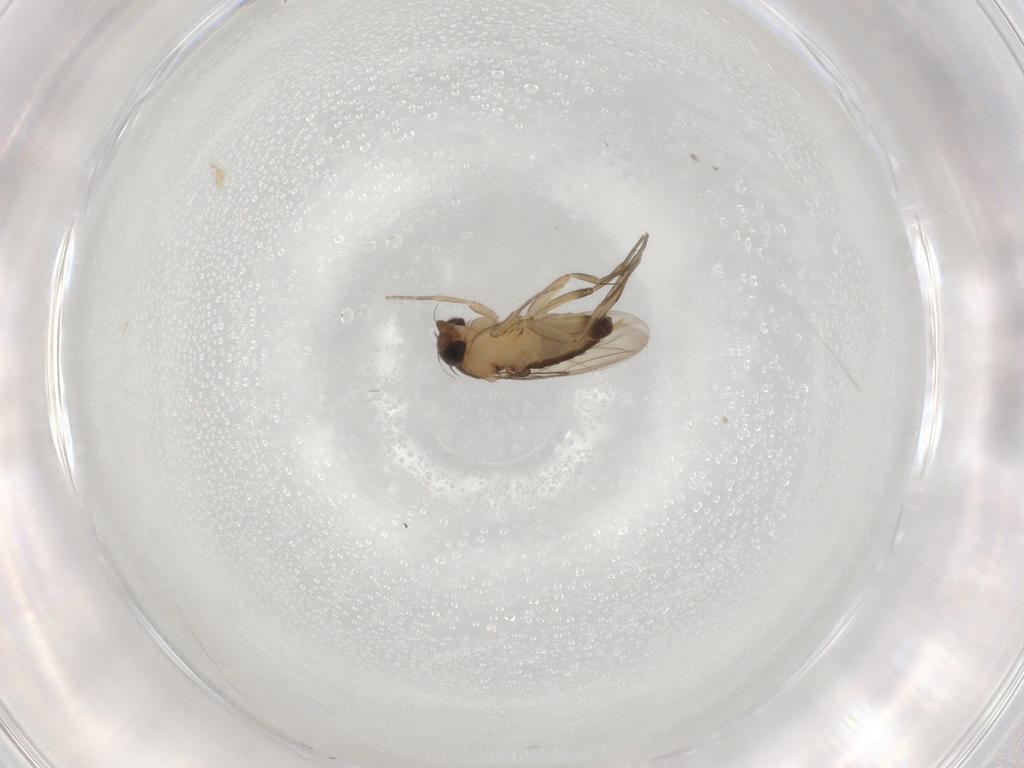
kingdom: Animalia
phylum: Arthropoda
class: Insecta
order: Diptera
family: Phoridae
